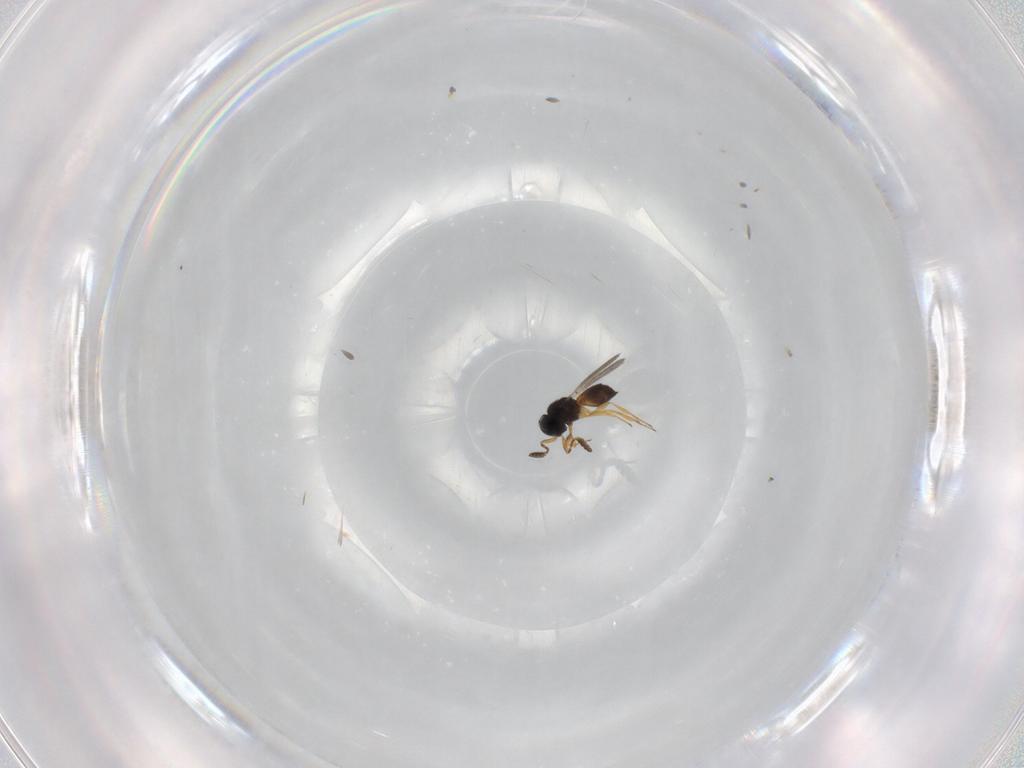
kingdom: Animalia
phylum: Arthropoda
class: Insecta
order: Hymenoptera
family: Scelionidae
